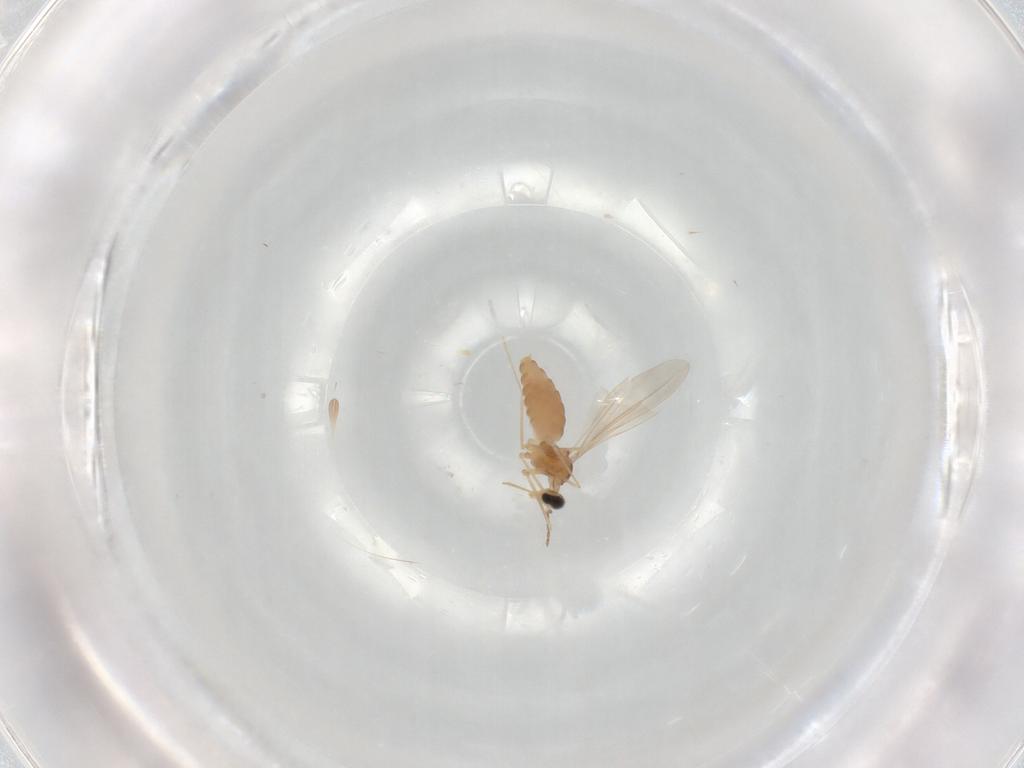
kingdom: Animalia
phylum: Arthropoda
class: Insecta
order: Diptera
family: Cecidomyiidae
